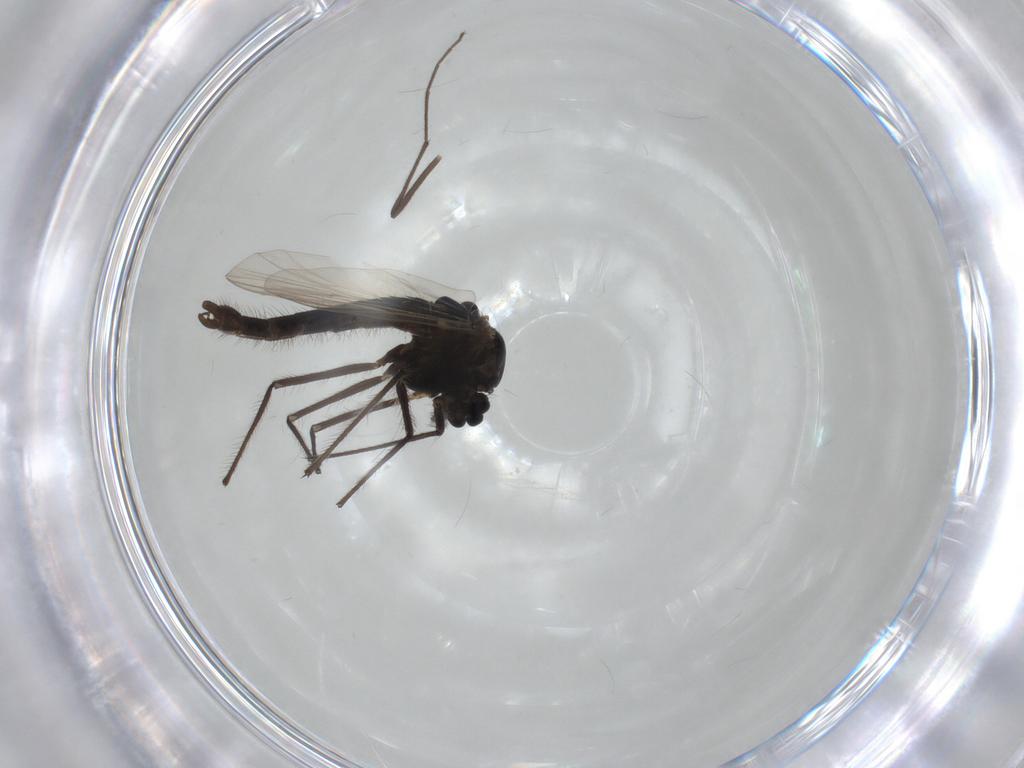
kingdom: Animalia
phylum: Arthropoda
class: Insecta
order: Diptera
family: Chironomidae
